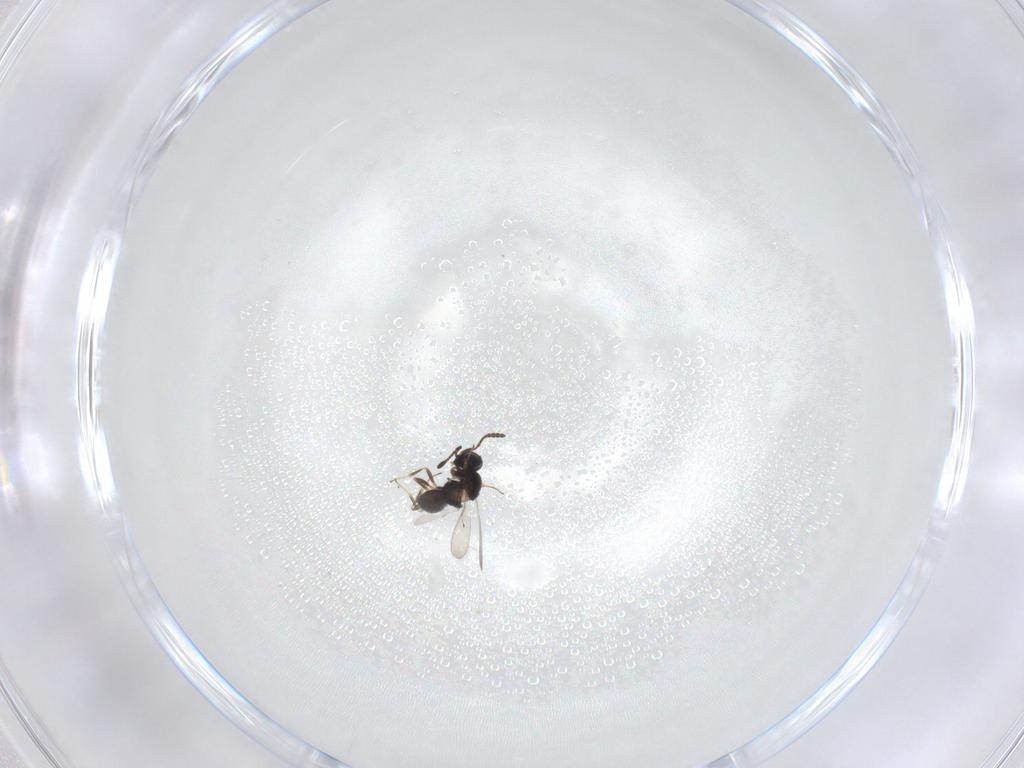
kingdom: Animalia
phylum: Arthropoda
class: Insecta
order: Hymenoptera
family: Scelionidae
